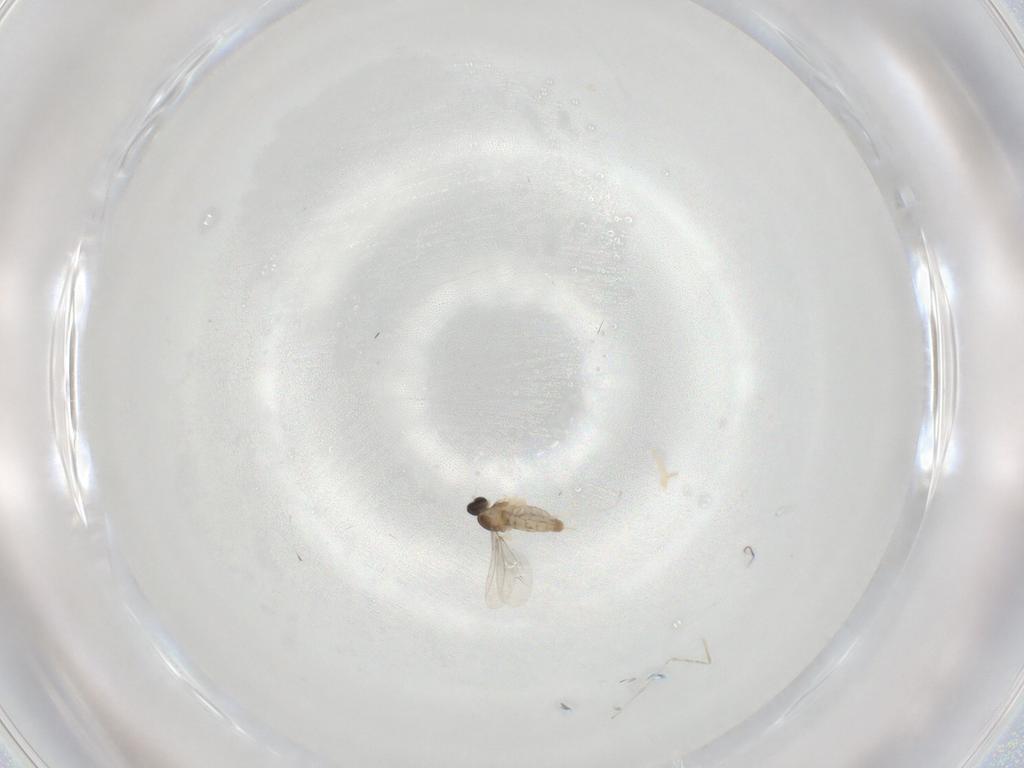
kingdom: Animalia
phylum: Arthropoda
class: Insecta
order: Diptera
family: Cecidomyiidae
